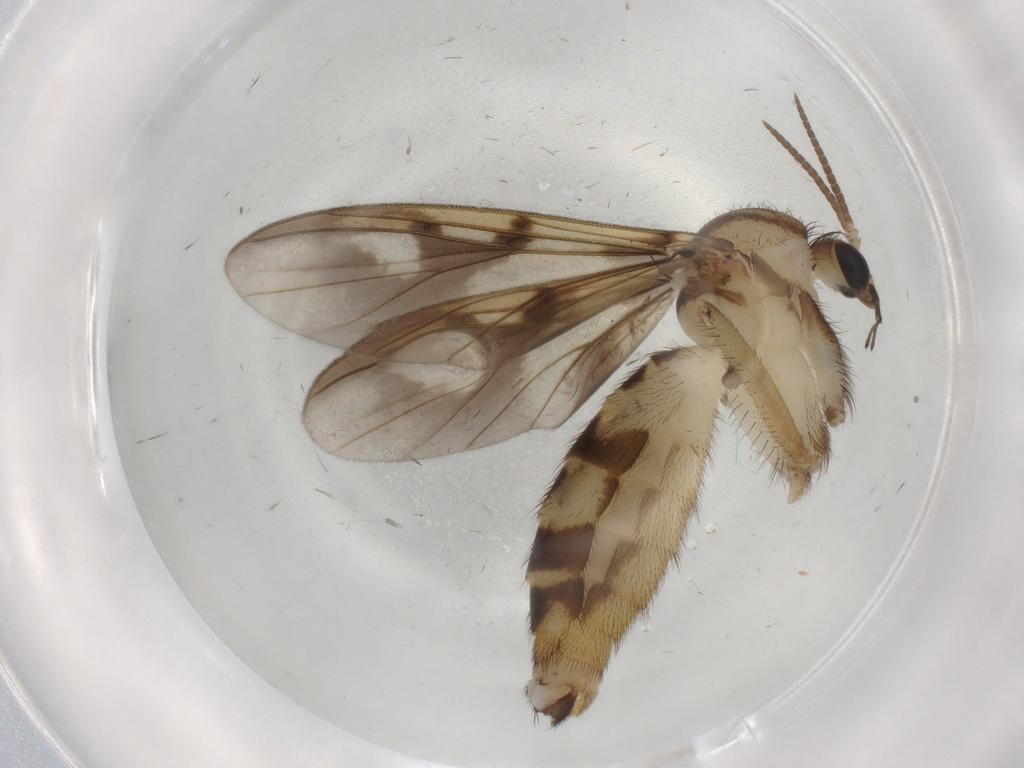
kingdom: Animalia
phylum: Arthropoda
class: Insecta
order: Diptera
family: Mycetophilidae
